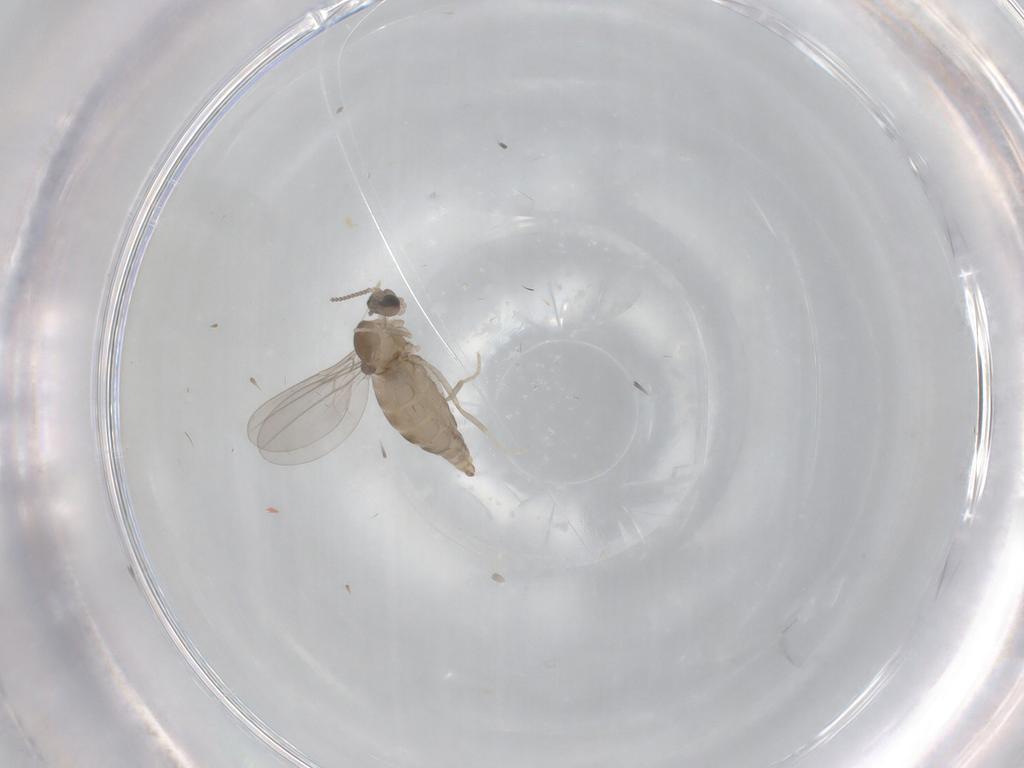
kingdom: Animalia
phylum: Arthropoda
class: Insecta
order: Diptera
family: Cecidomyiidae
